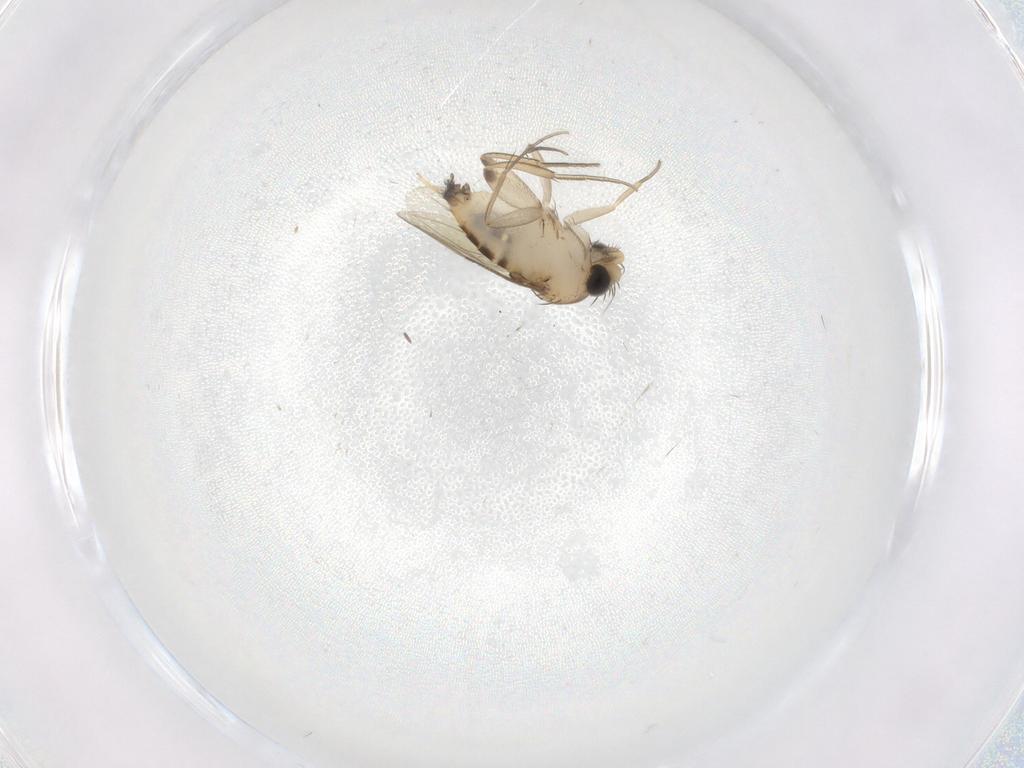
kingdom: Animalia
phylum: Arthropoda
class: Insecta
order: Diptera
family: Phoridae
